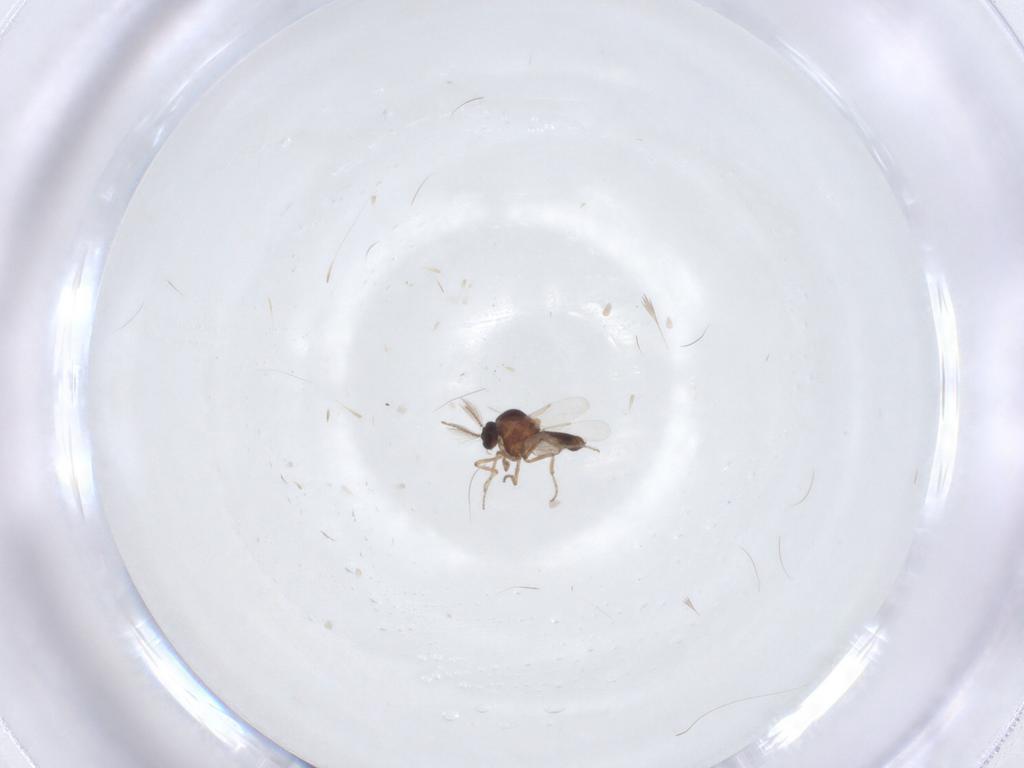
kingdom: Animalia
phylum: Arthropoda
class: Insecta
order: Diptera
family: Ceratopogonidae
